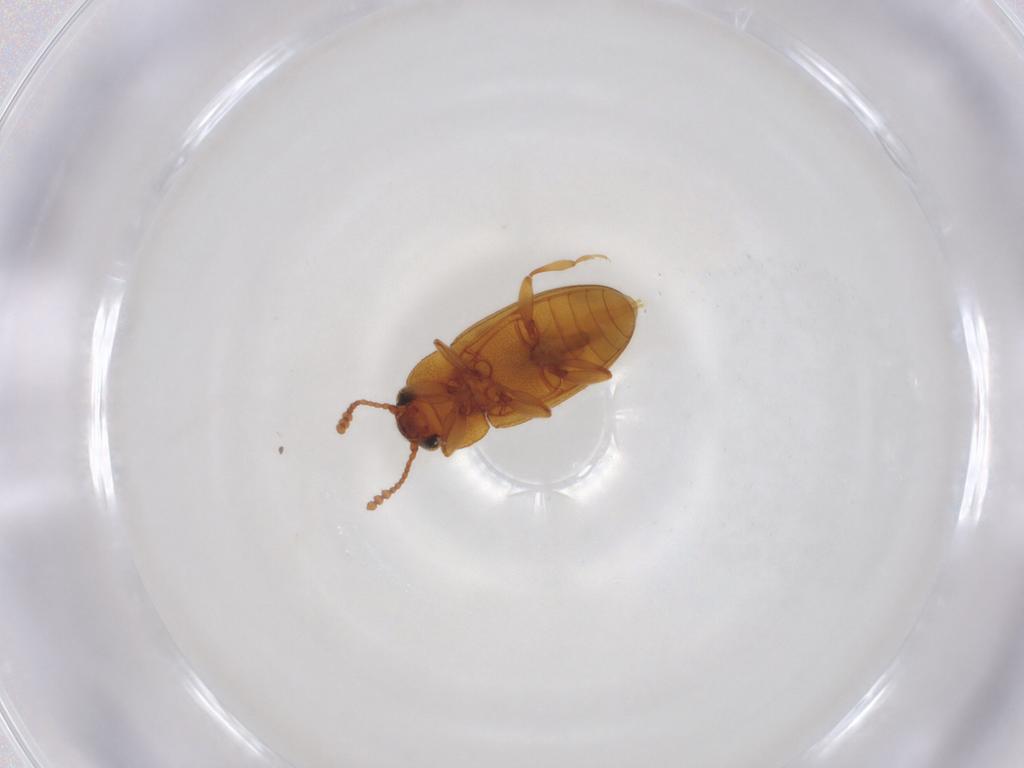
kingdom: Animalia
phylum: Arthropoda
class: Insecta
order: Coleoptera
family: Erotylidae
